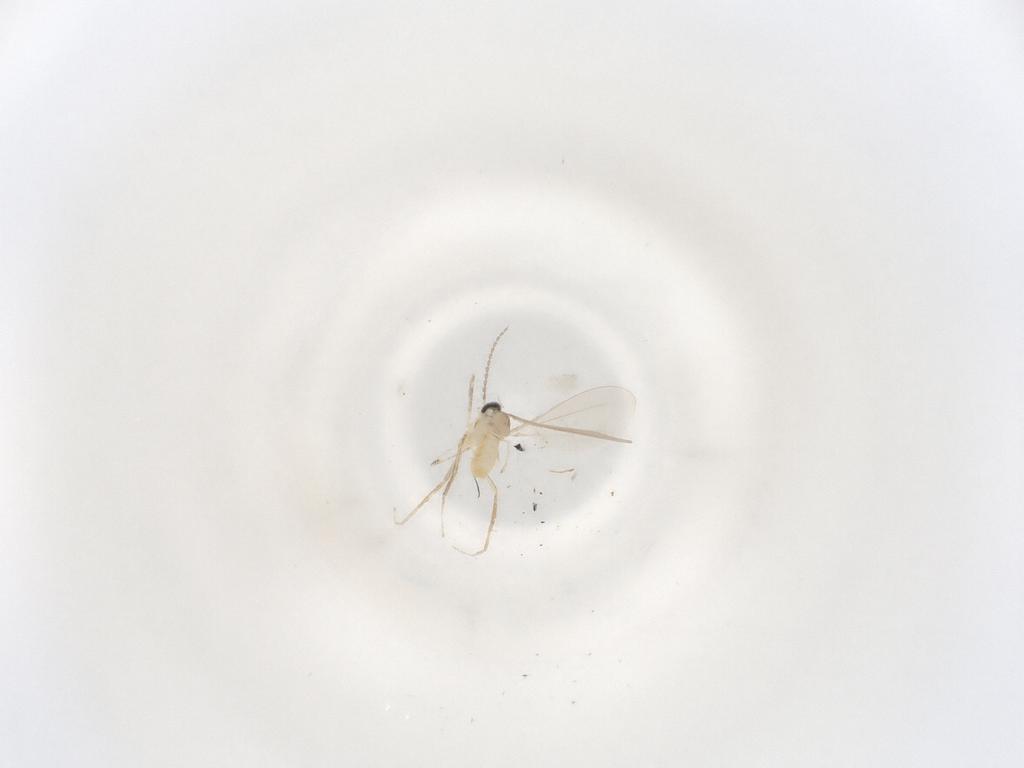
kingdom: Animalia
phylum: Arthropoda
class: Insecta
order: Diptera
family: Cecidomyiidae
